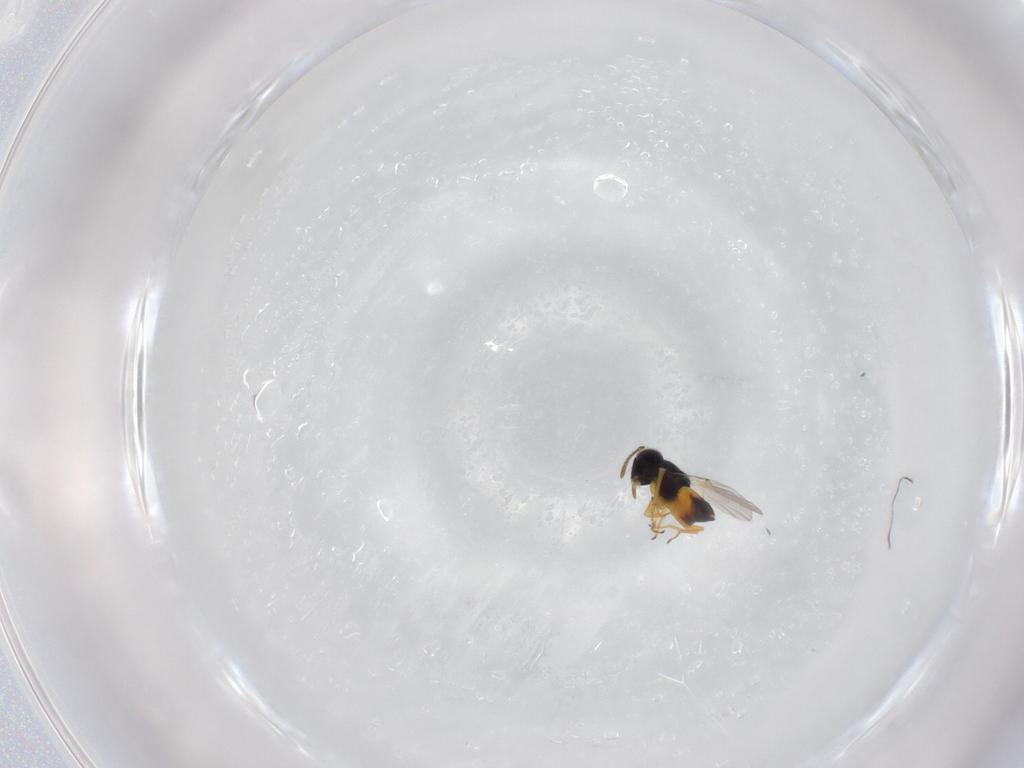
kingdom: Animalia
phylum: Arthropoda
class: Insecta
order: Hymenoptera
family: Encyrtidae
